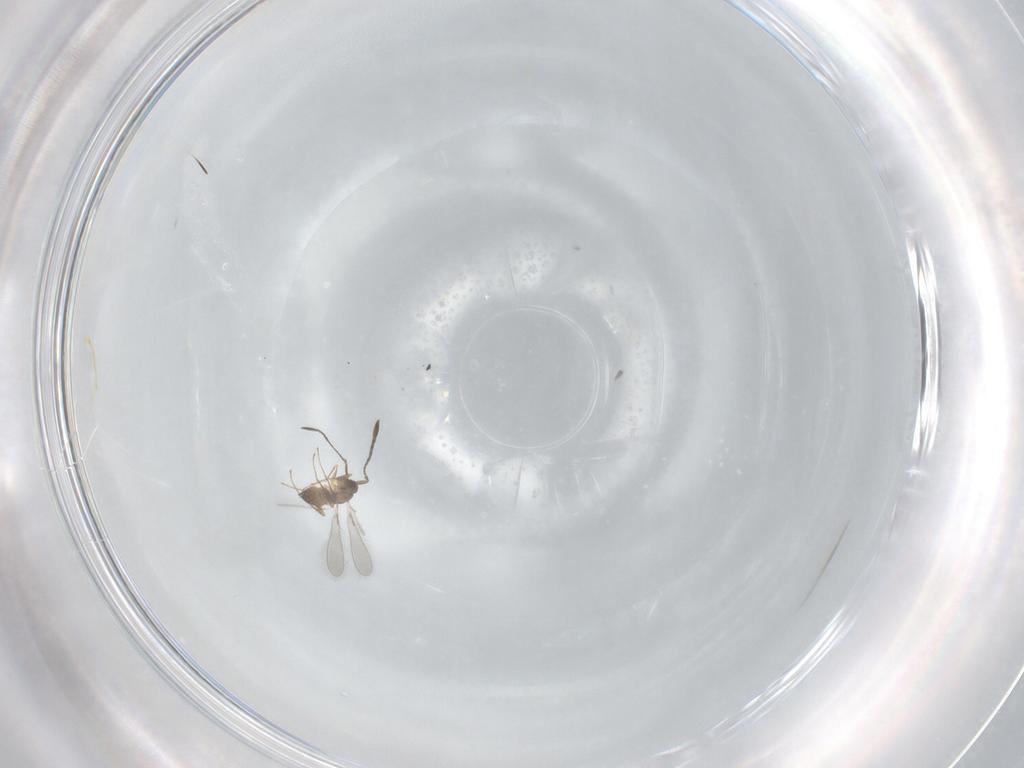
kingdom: Animalia
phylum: Arthropoda
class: Insecta
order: Hymenoptera
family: Mymaridae
